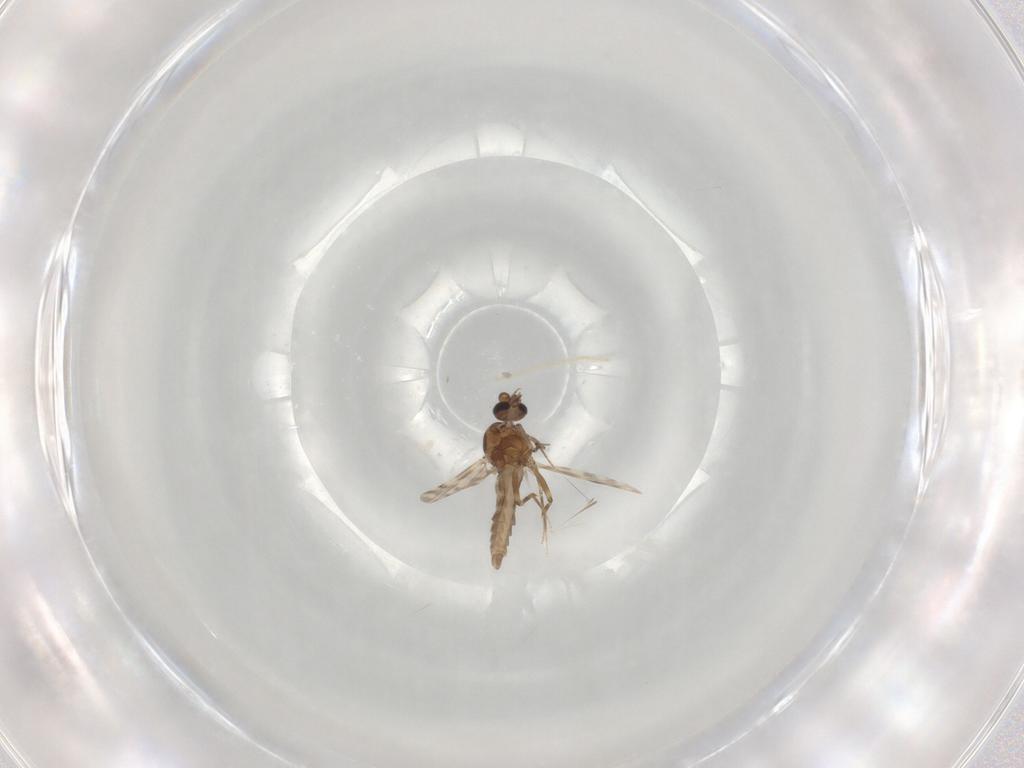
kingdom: Animalia
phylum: Arthropoda
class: Insecta
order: Diptera
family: Ceratopogonidae
